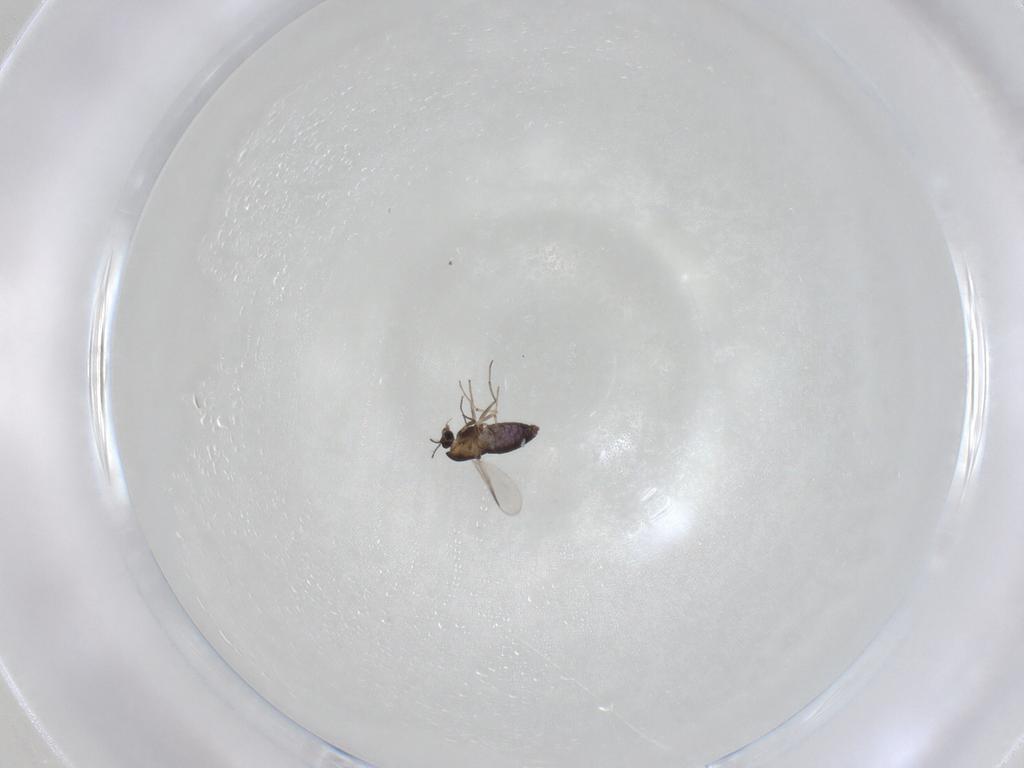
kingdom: Animalia
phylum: Arthropoda
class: Insecta
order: Diptera
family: Chironomidae
